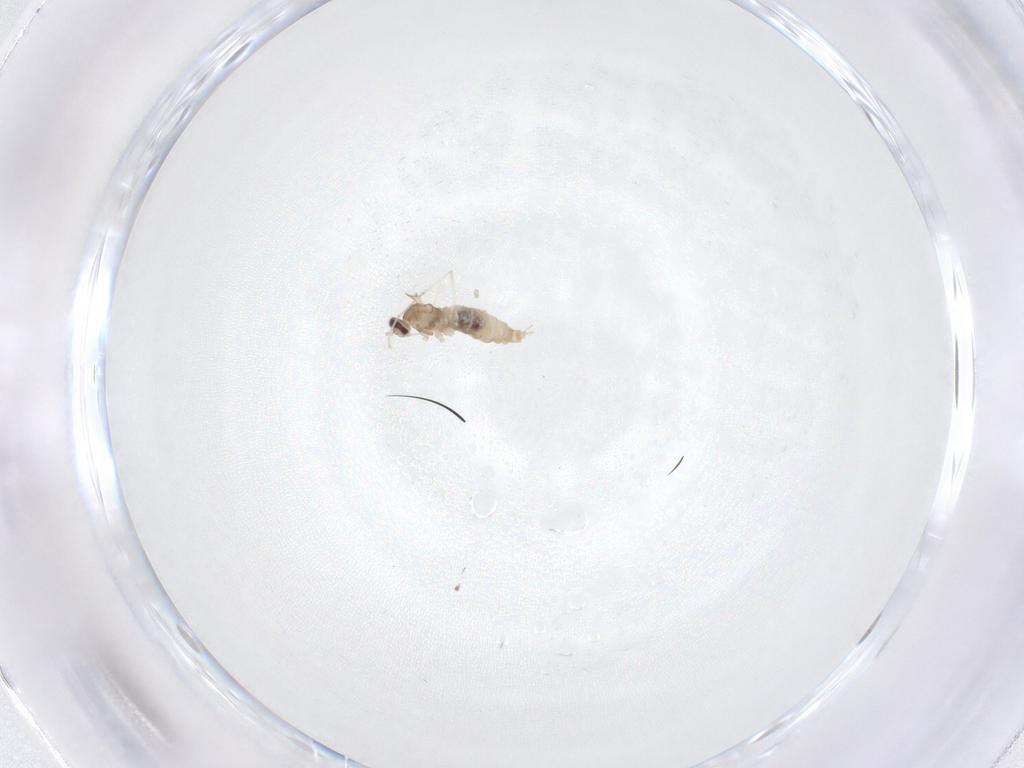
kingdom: Animalia
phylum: Arthropoda
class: Insecta
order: Diptera
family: Cecidomyiidae
